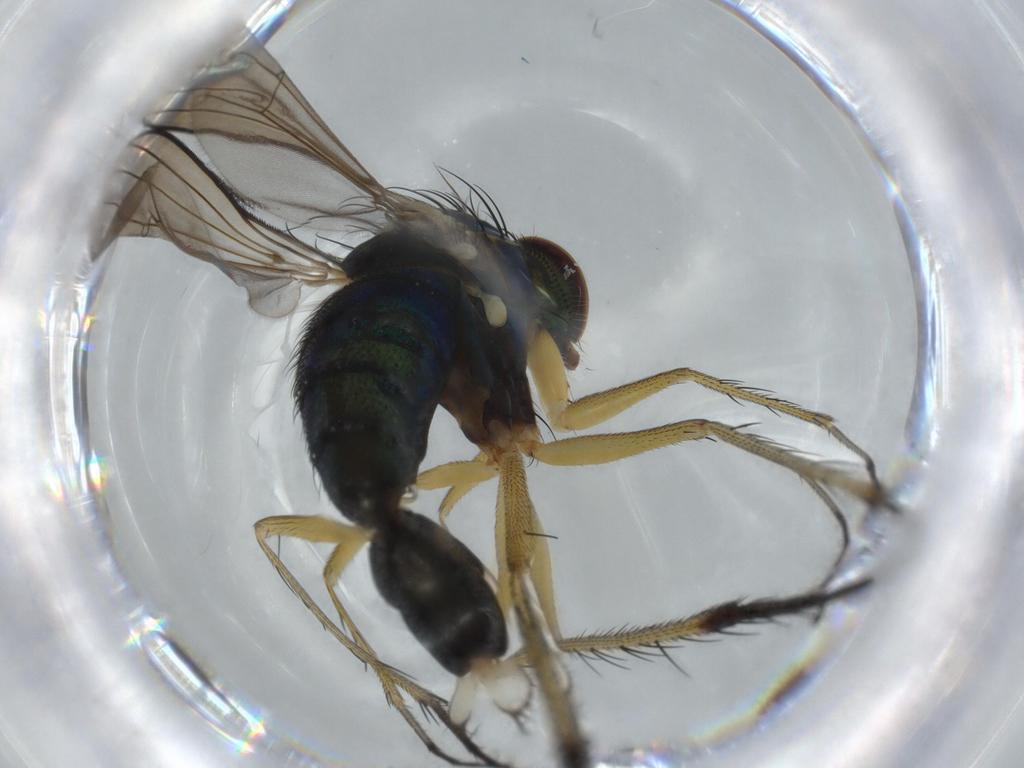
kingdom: Animalia
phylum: Arthropoda
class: Insecta
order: Diptera
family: Dolichopodidae
